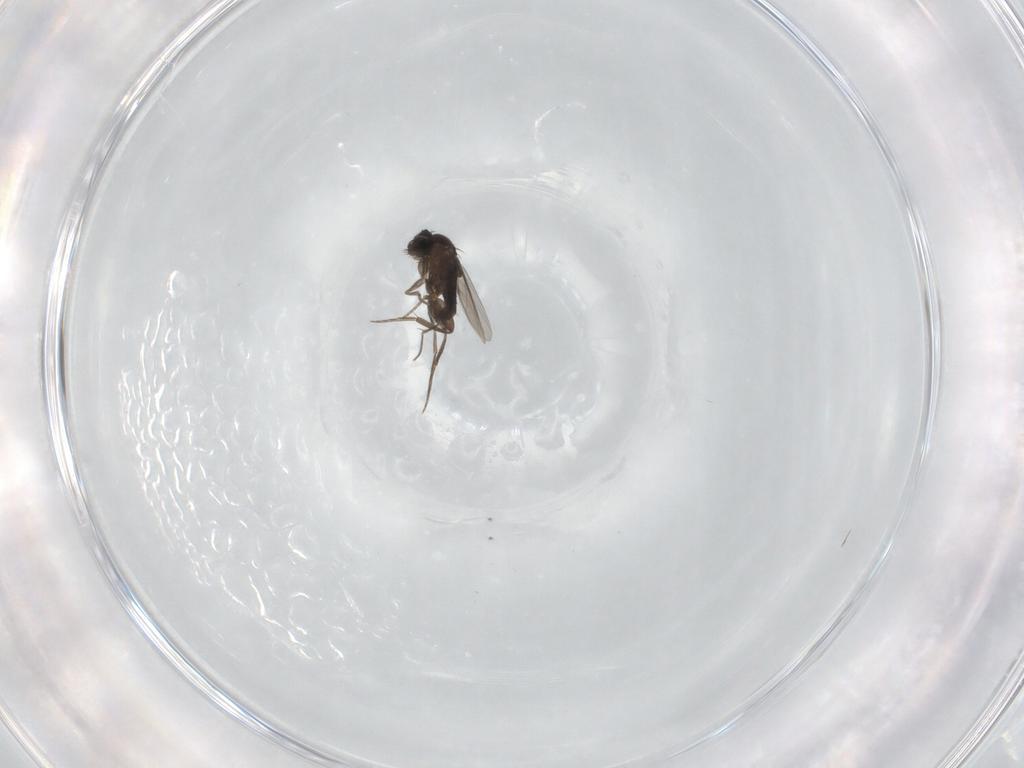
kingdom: Animalia
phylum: Arthropoda
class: Insecta
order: Diptera
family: Phoridae
